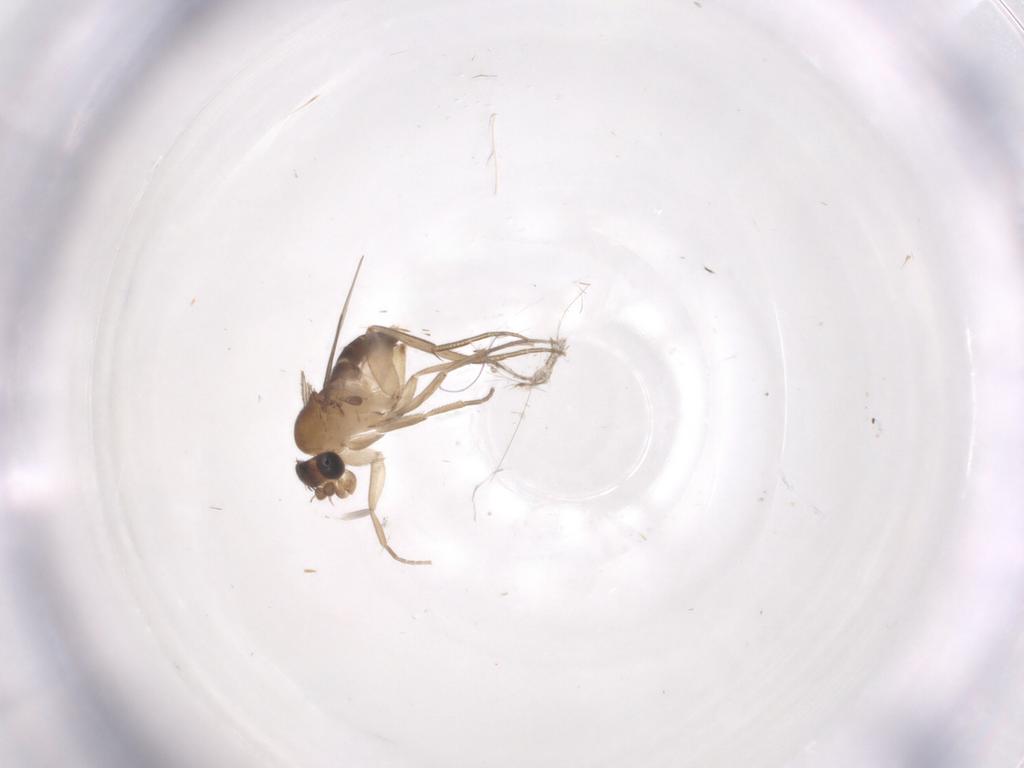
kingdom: Animalia
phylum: Arthropoda
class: Insecta
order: Diptera
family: Phoridae
